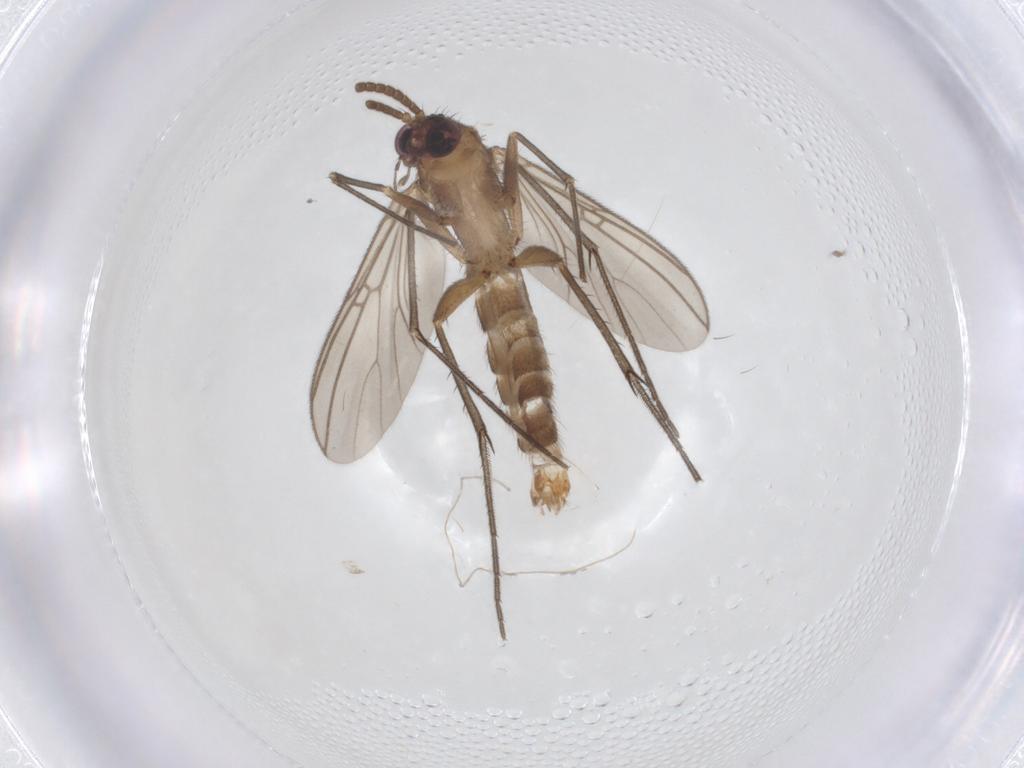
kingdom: Animalia
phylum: Arthropoda
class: Insecta
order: Diptera
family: Mycetophilidae
